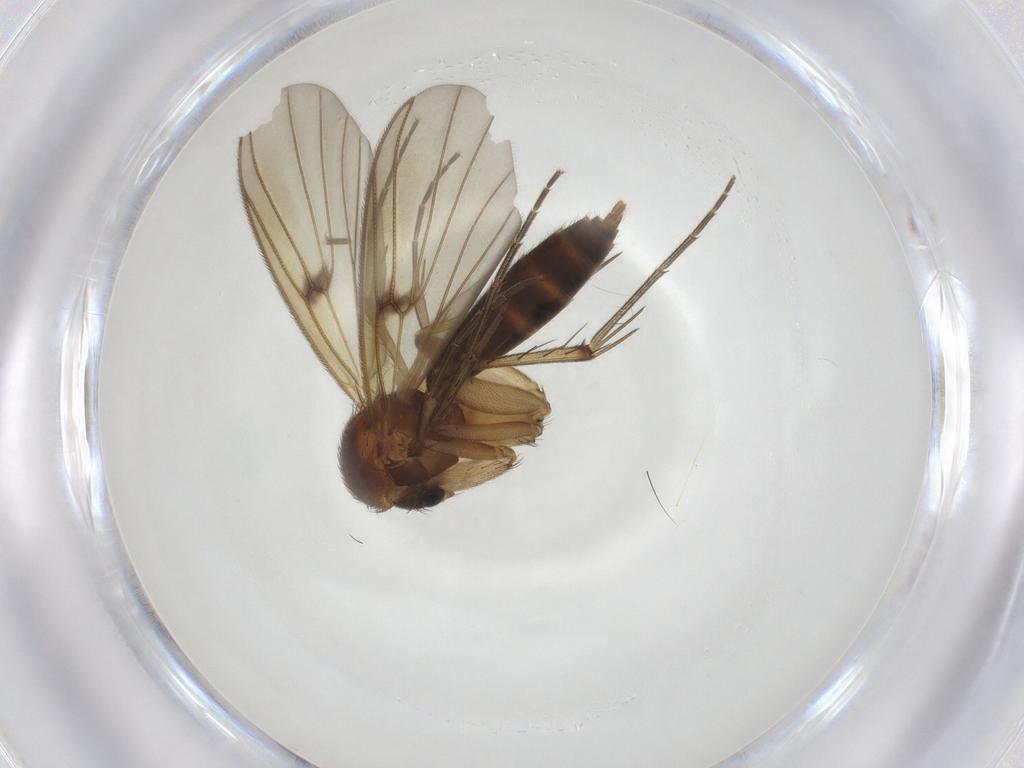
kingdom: Animalia
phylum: Arthropoda
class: Insecta
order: Diptera
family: Mycetophilidae
